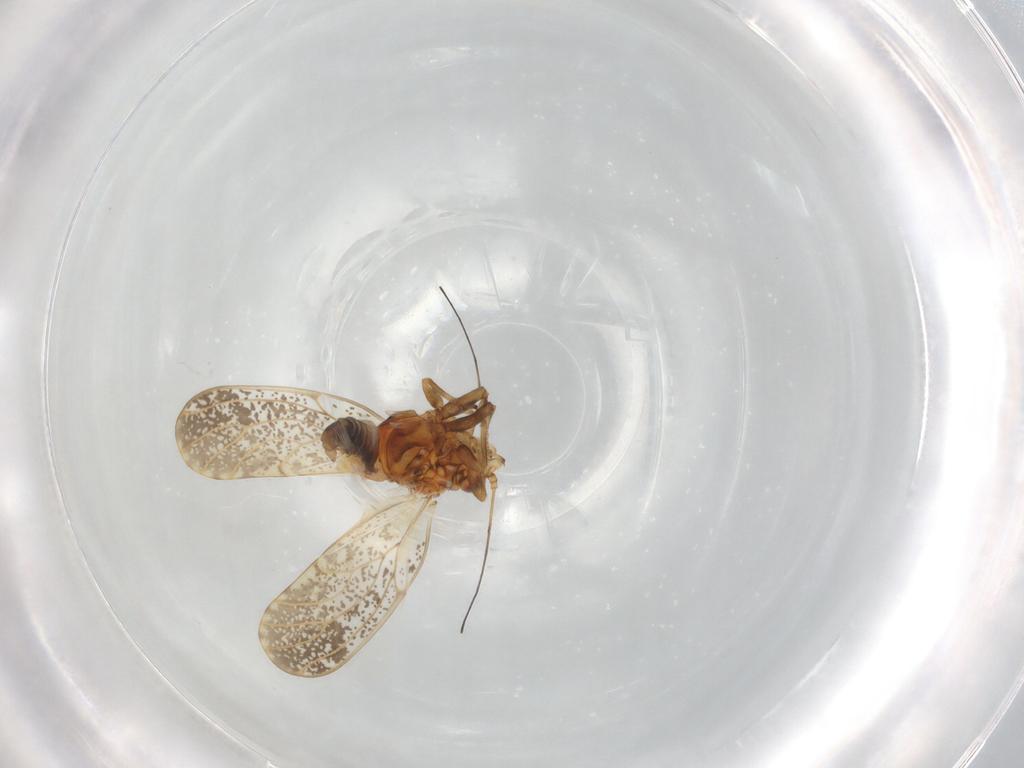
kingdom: Animalia
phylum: Arthropoda
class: Insecta
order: Hemiptera
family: Psyllidae
